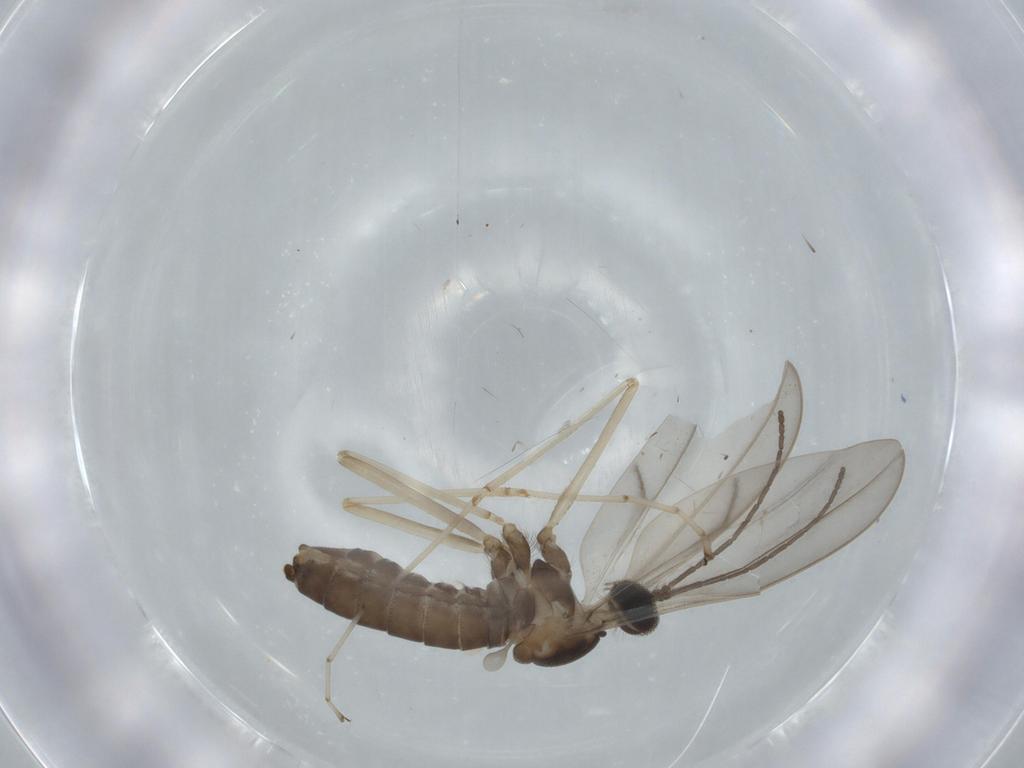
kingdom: Animalia
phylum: Arthropoda
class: Insecta
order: Diptera
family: Cecidomyiidae
